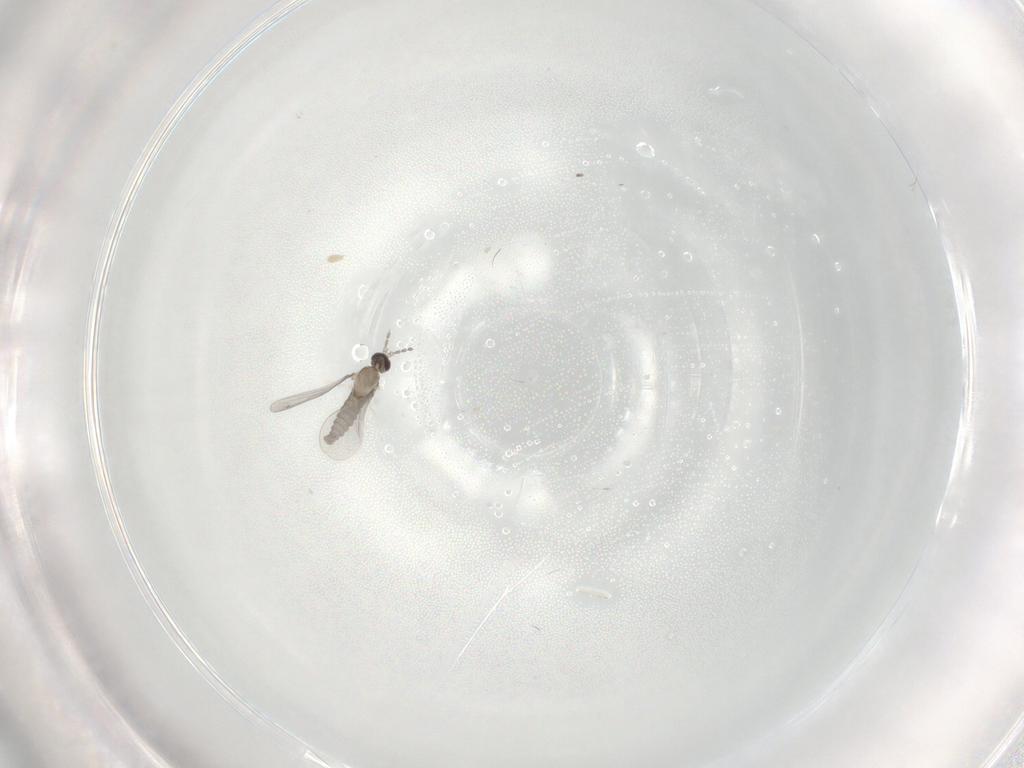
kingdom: Animalia
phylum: Arthropoda
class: Insecta
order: Diptera
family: Cecidomyiidae
